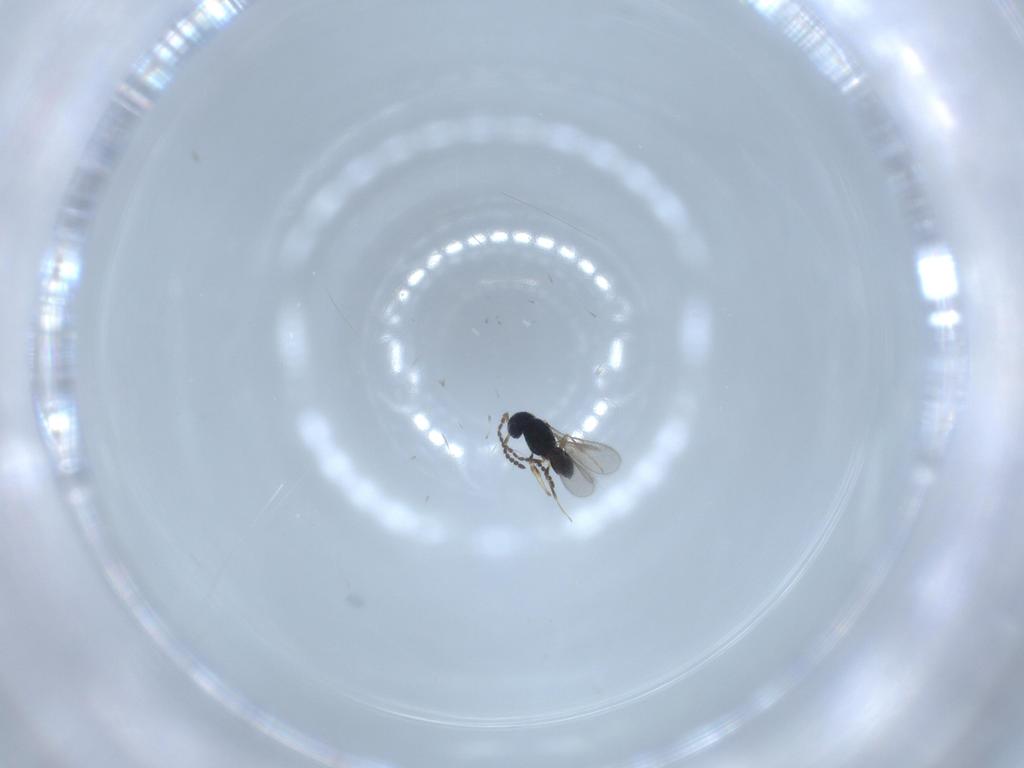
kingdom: Animalia
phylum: Arthropoda
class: Insecta
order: Hymenoptera
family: Scelionidae
